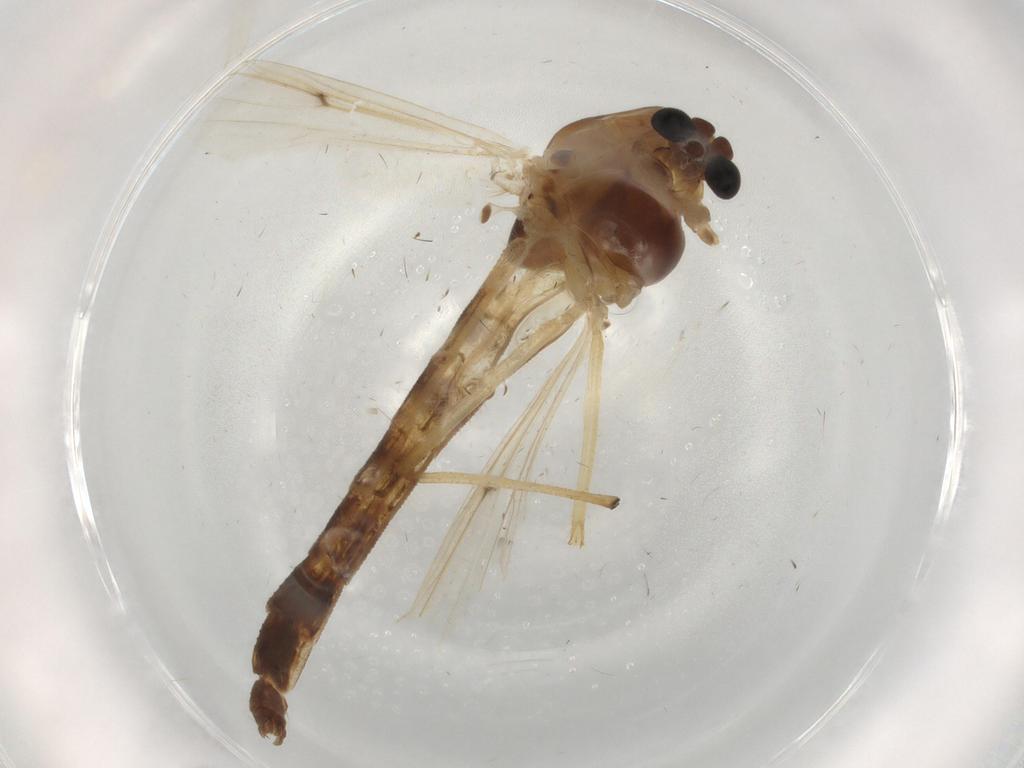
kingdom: Animalia
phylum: Arthropoda
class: Insecta
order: Diptera
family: Cecidomyiidae
